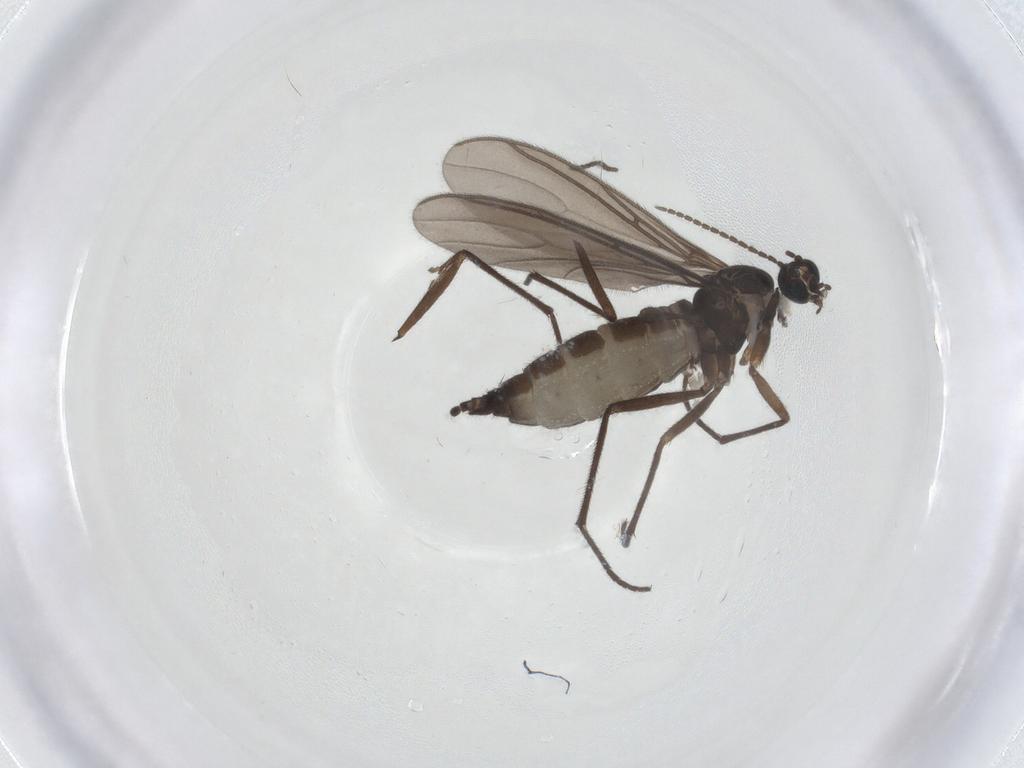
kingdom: Animalia
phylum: Arthropoda
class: Insecta
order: Diptera
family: Sciaridae
